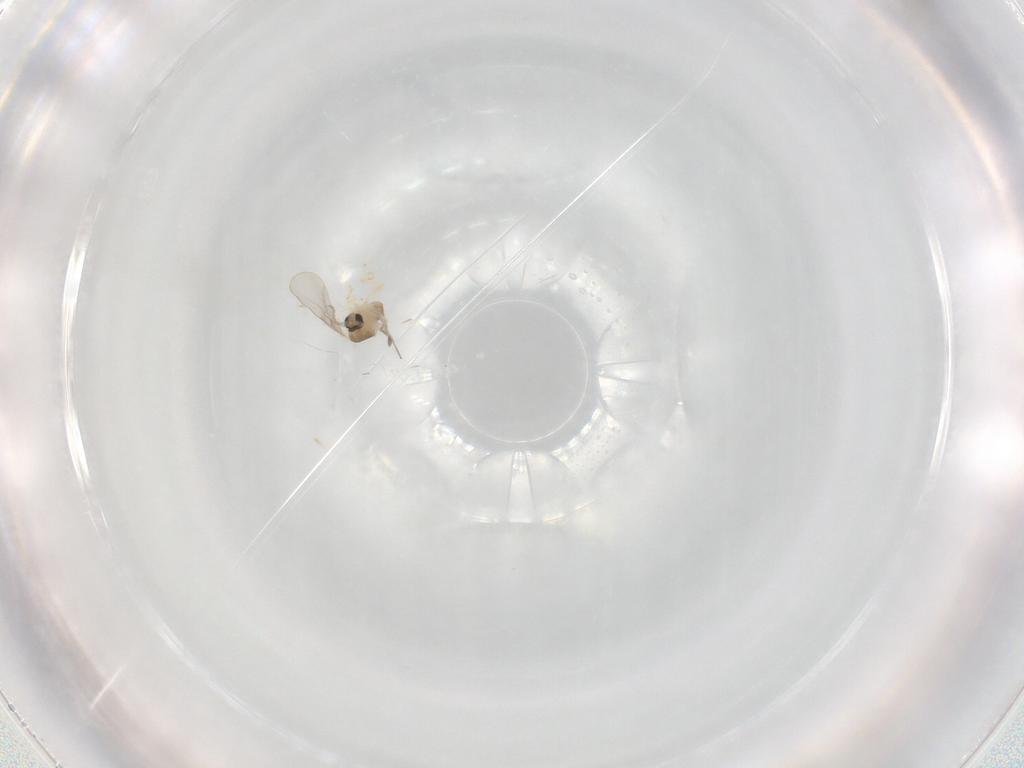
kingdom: Animalia
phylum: Arthropoda
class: Insecta
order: Diptera
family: Cecidomyiidae
